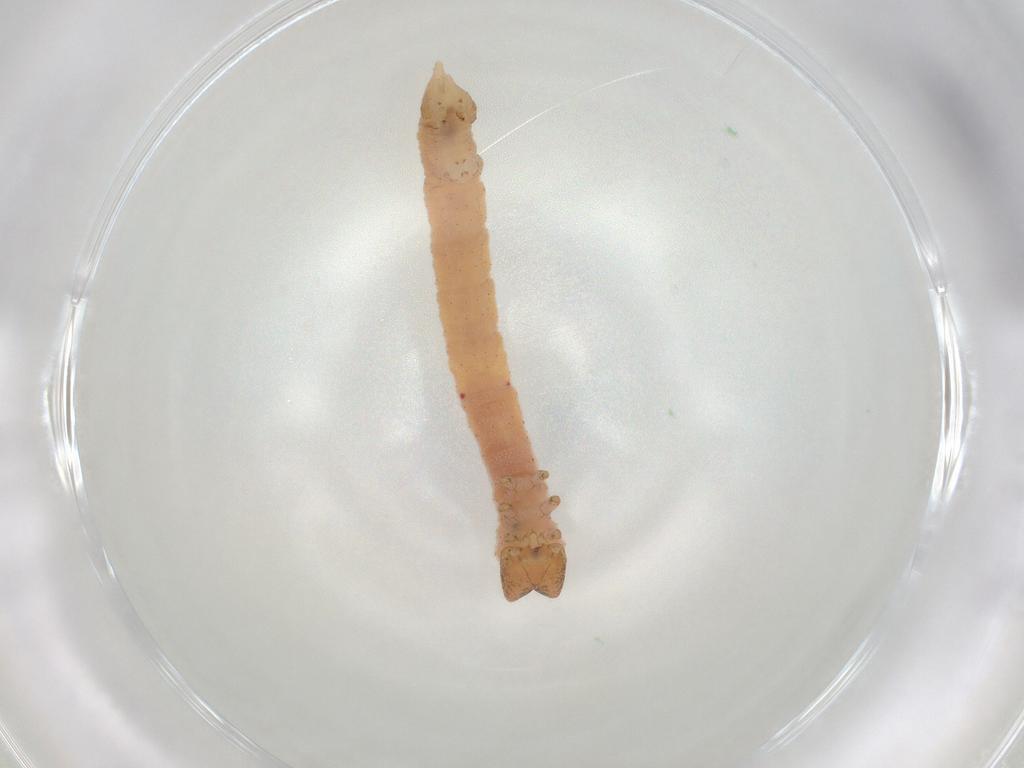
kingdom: Animalia
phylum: Arthropoda
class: Insecta
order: Lepidoptera
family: Geometridae
